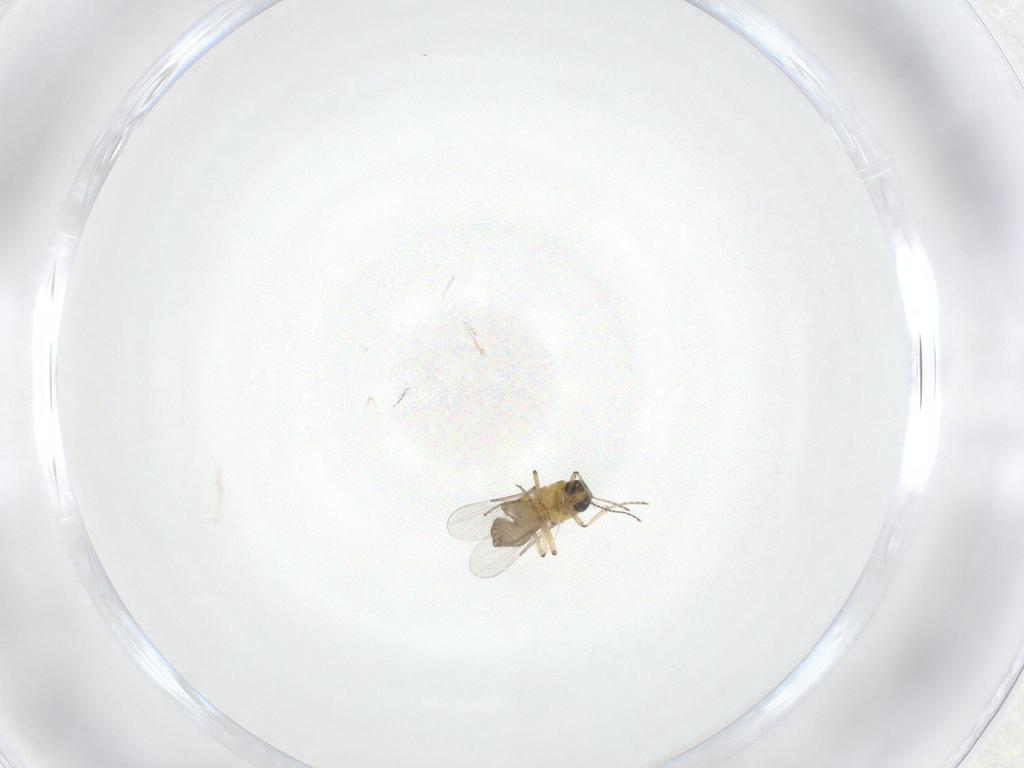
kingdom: Animalia
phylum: Arthropoda
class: Insecta
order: Diptera
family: Ceratopogonidae
